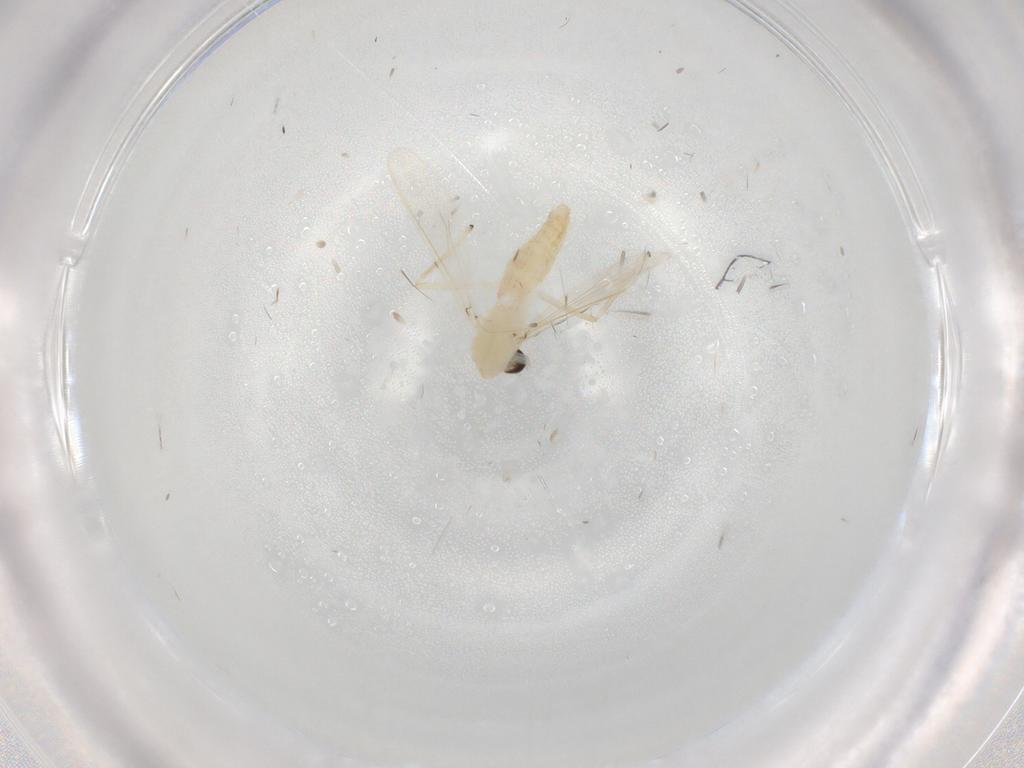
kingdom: Animalia
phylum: Arthropoda
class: Insecta
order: Diptera
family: Chironomidae
